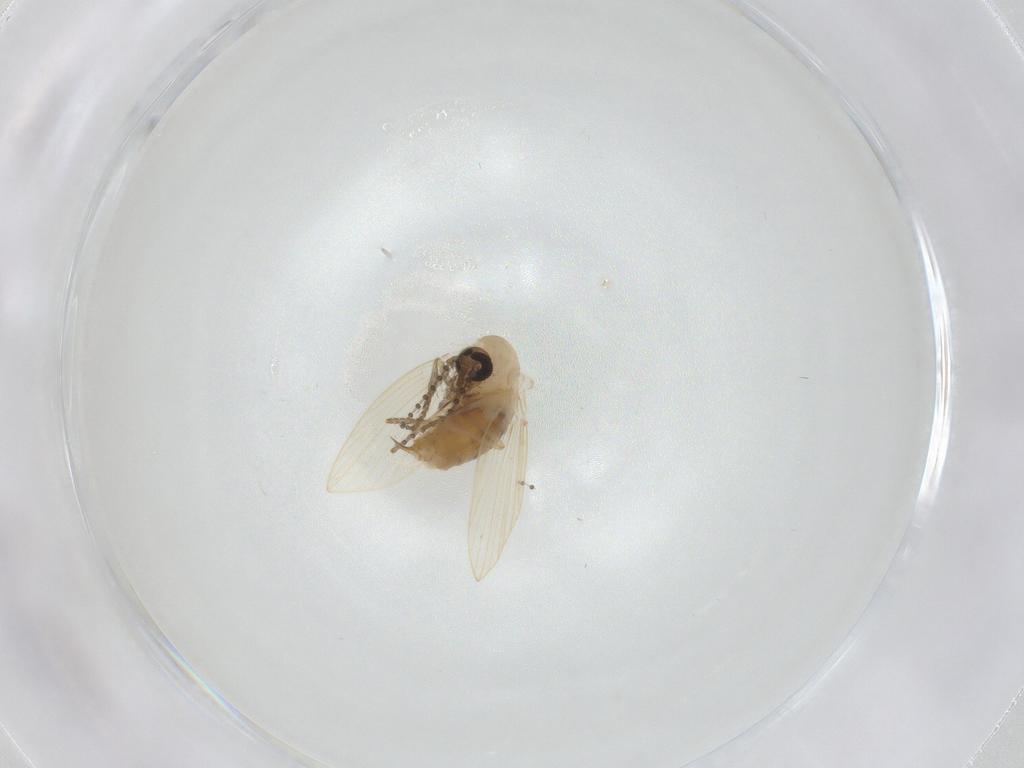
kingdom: Animalia
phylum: Arthropoda
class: Insecta
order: Diptera
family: Psychodidae
